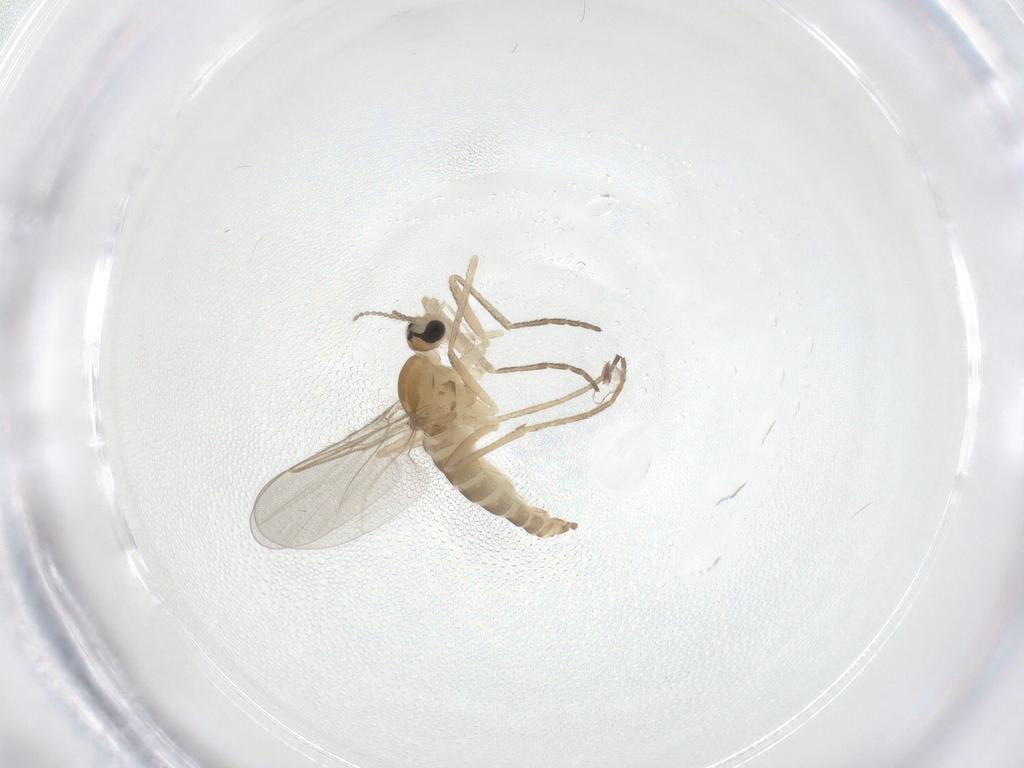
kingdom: Animalia
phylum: Arthropoda
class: Insecta
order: Diptera
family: Cecidomyiidae
